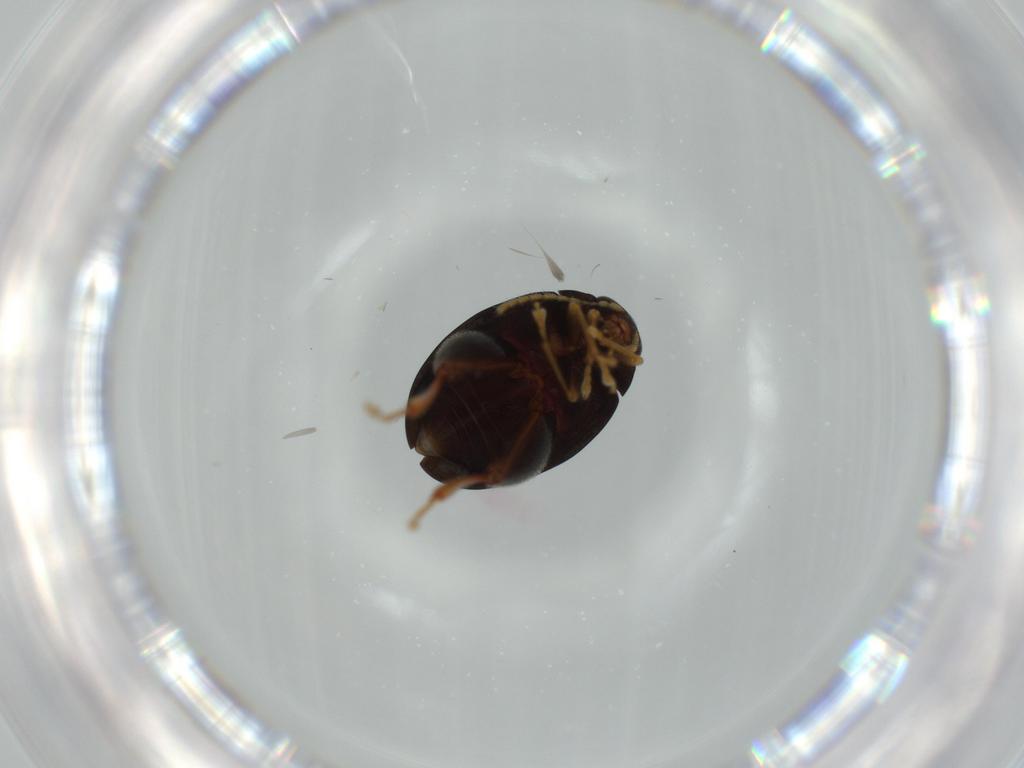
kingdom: Animalia
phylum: Arthropoda
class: Insecta
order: Coleoptera
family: Chrysomelidae
